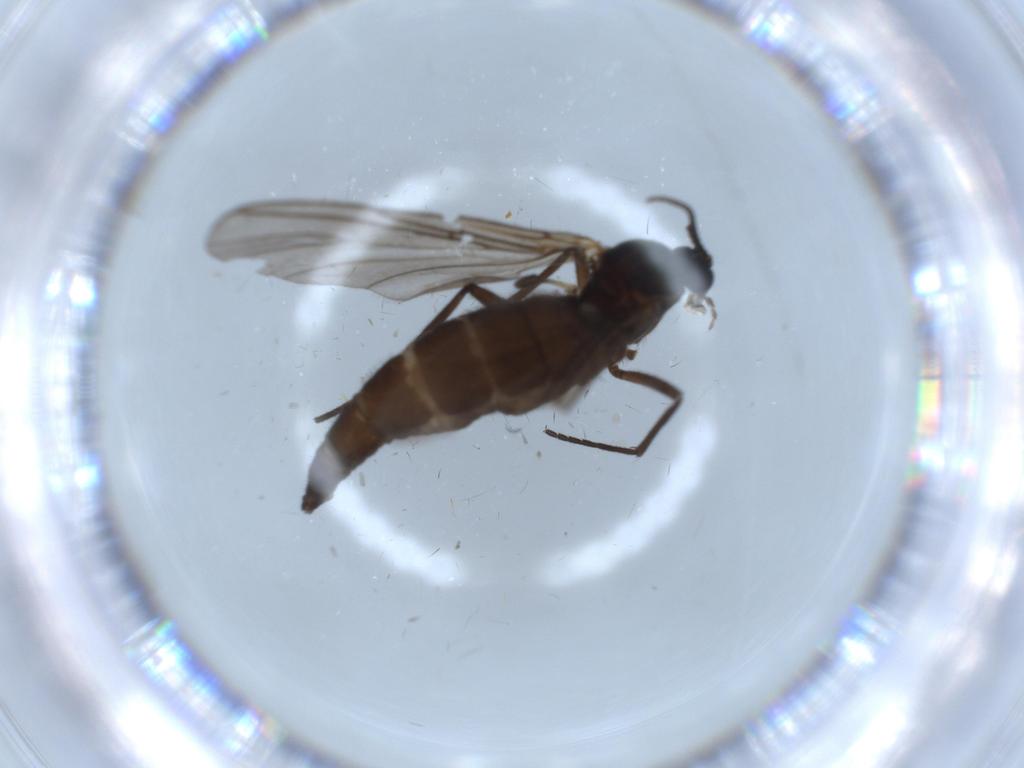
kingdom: Animalia
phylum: Arthropoda
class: Insecta
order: Diptera
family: Sciaridae
